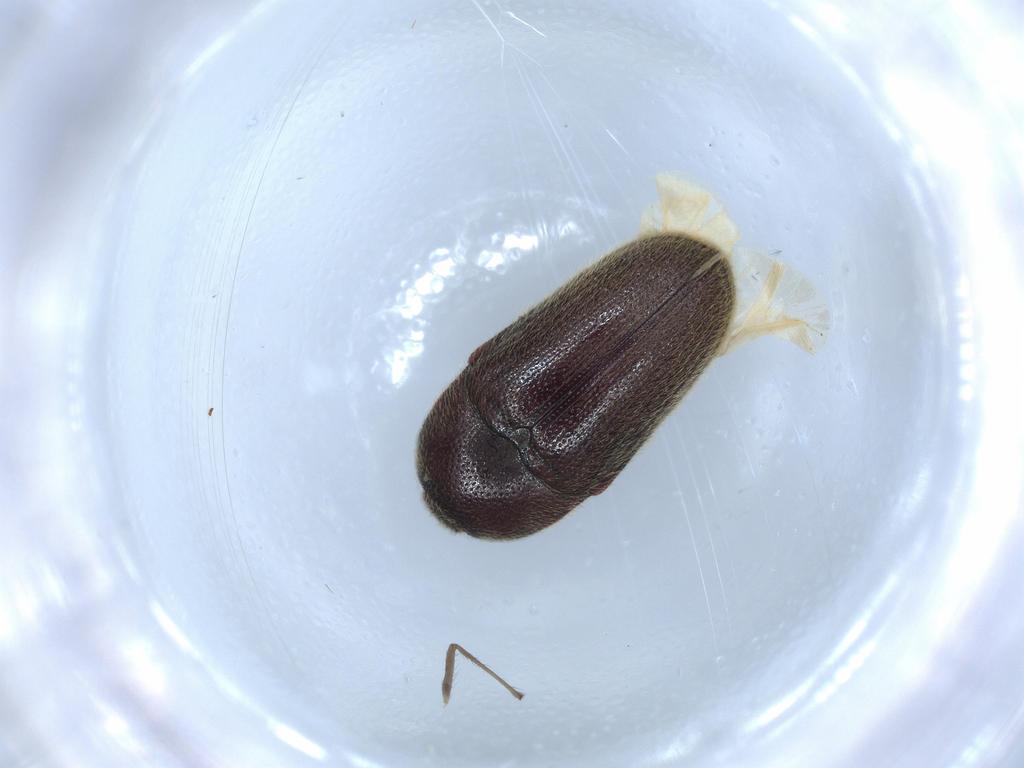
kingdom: Animalia
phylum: Arthropoda
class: Insecta
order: Coleoptera
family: Throscidae
